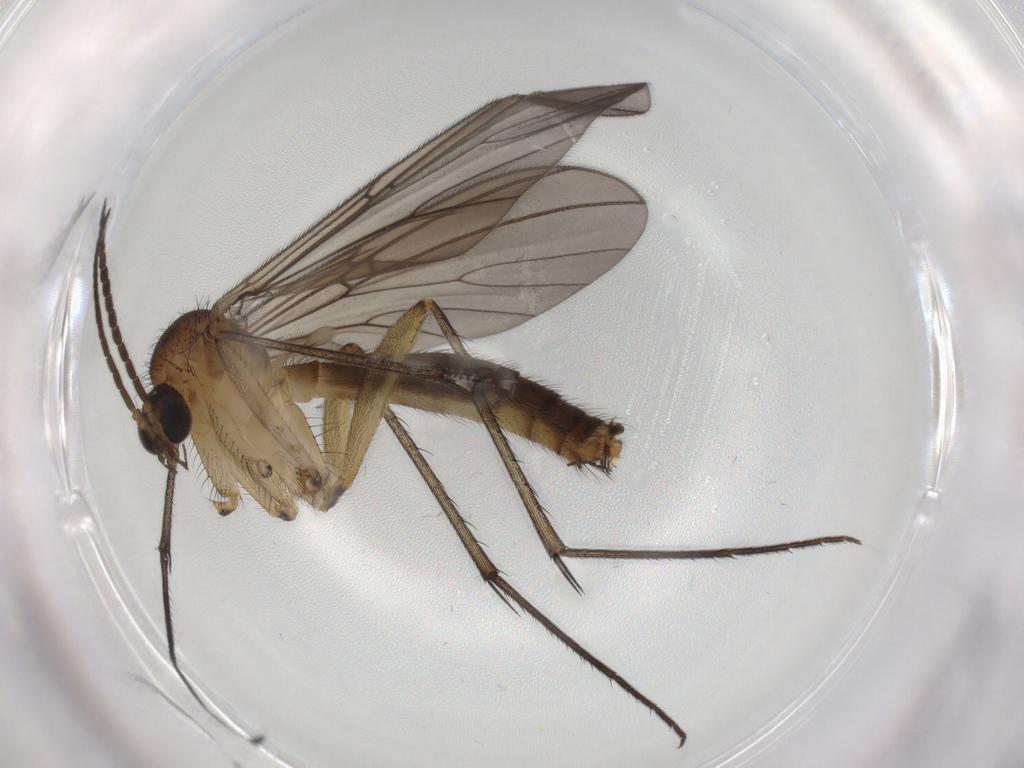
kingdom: Animalia
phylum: Arthropoda
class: Insecta
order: Diptera
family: Mycetophilidae
